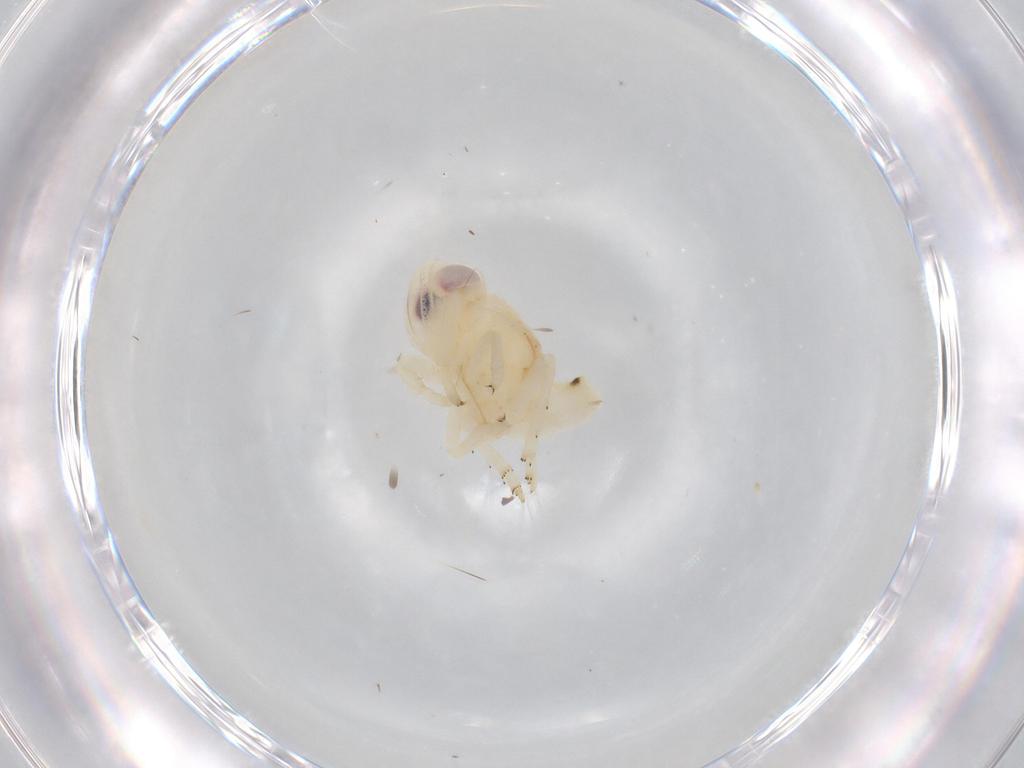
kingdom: Animalia
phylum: Arthropoda
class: Insecta
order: Hemiptera
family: Nogodinidae
